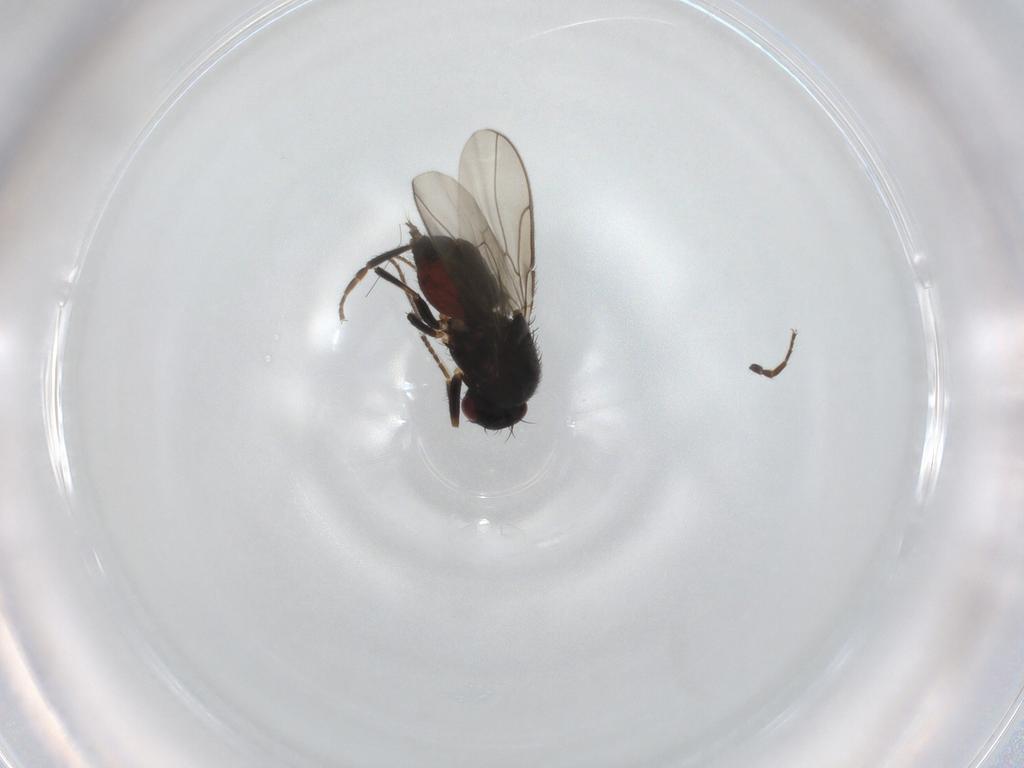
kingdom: Animalia
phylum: Arthropoda
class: Insecta
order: Diptera
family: Sphaeroceridae
